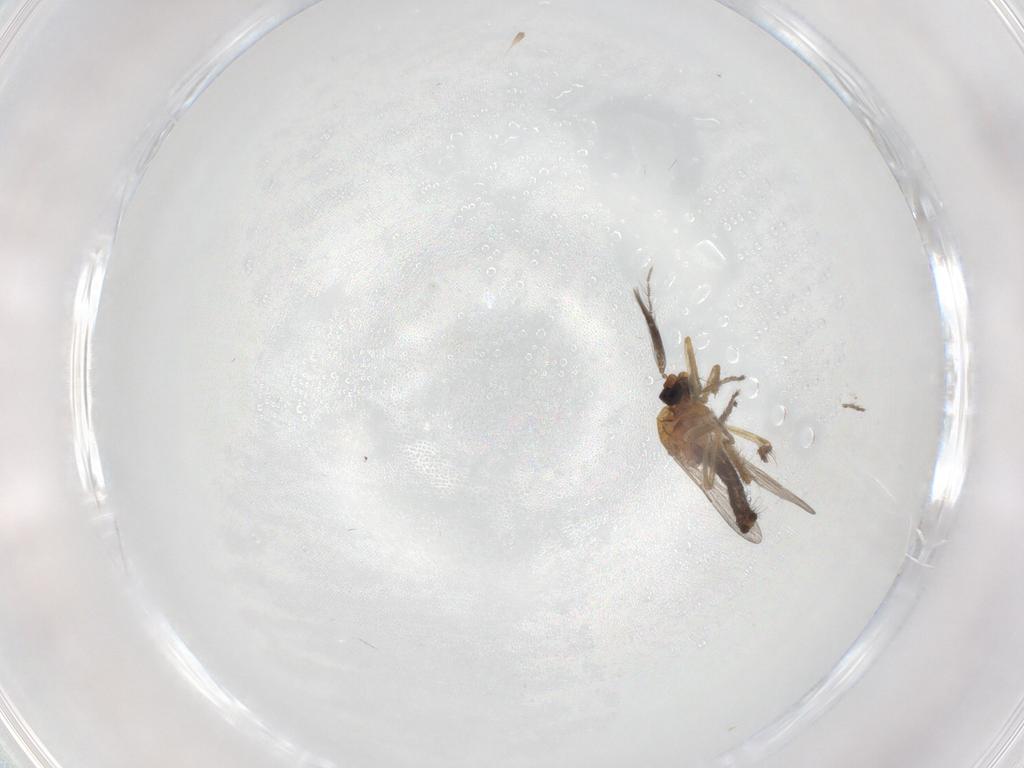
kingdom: Animalia
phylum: Arthropoda
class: Insecta
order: Diptera
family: Ceratopogonidae
